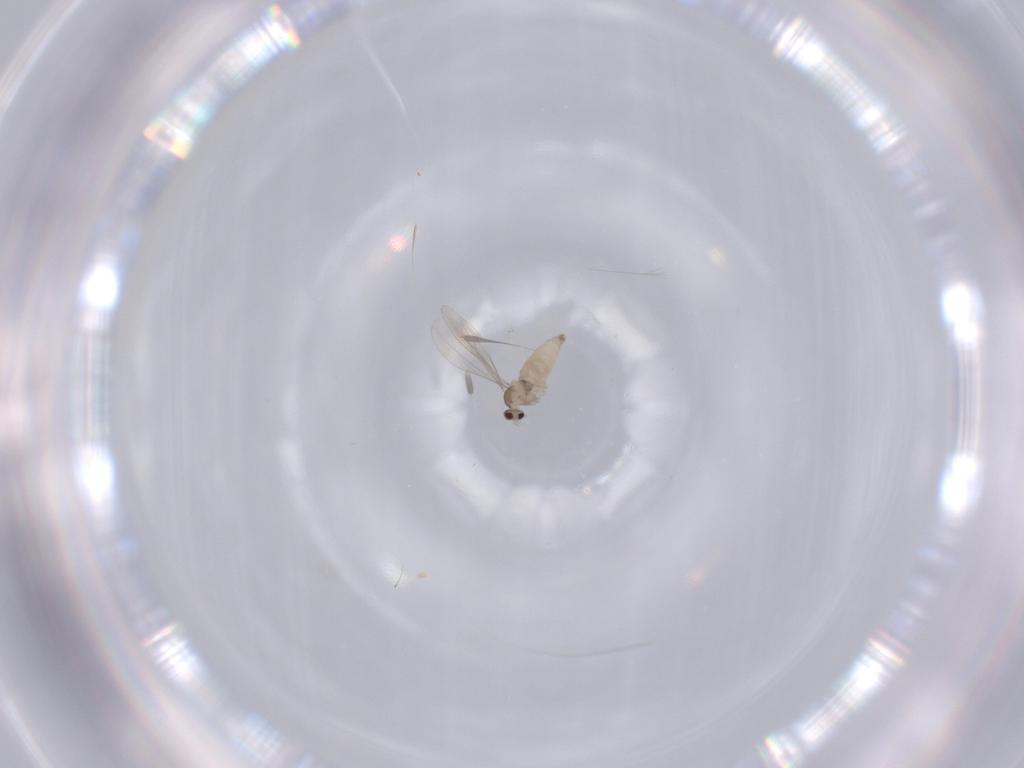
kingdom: Animalia
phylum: Arthropoda
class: Insecta
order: Diptera
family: Cecidomyiidae
